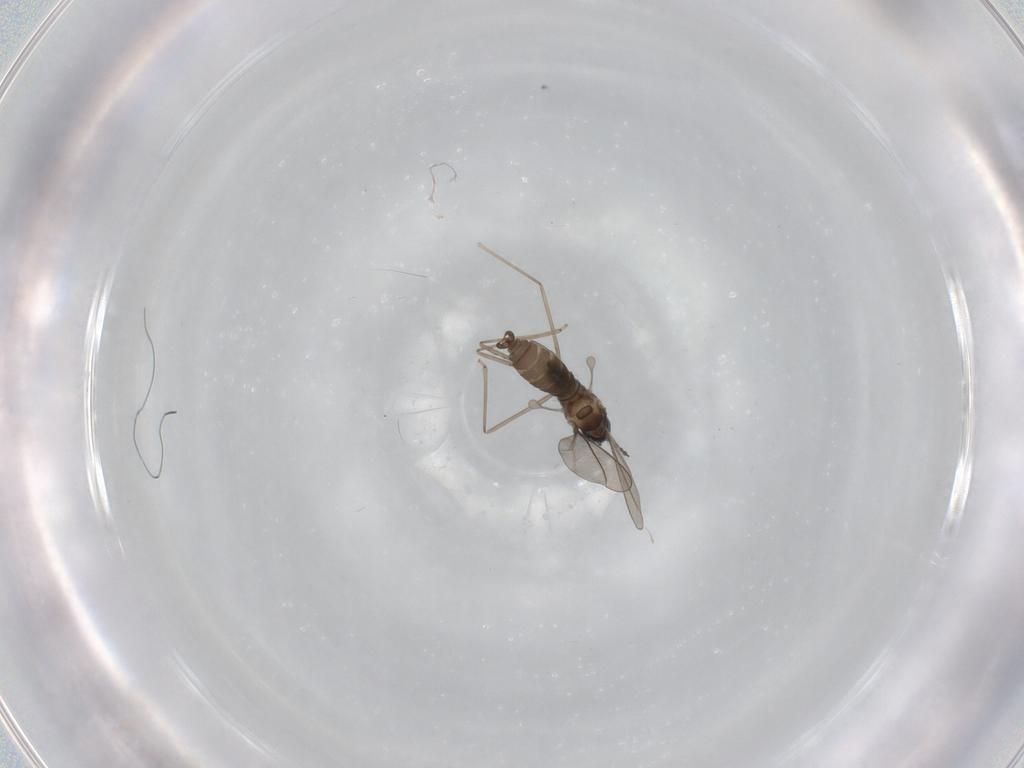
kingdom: Animalia
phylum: Arthropoda
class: Insecta
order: Diptera
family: Cecidomyiidae
